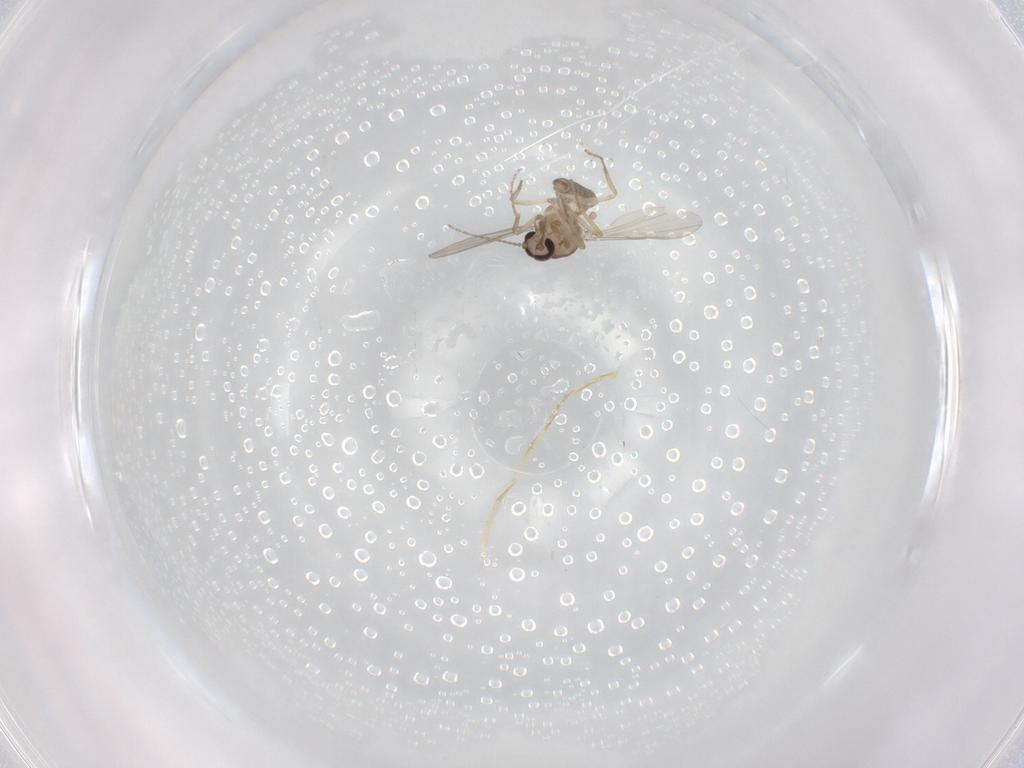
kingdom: Animalia
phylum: Arthropoda
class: Insecta
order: Diptera
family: Ceratopogonidae
